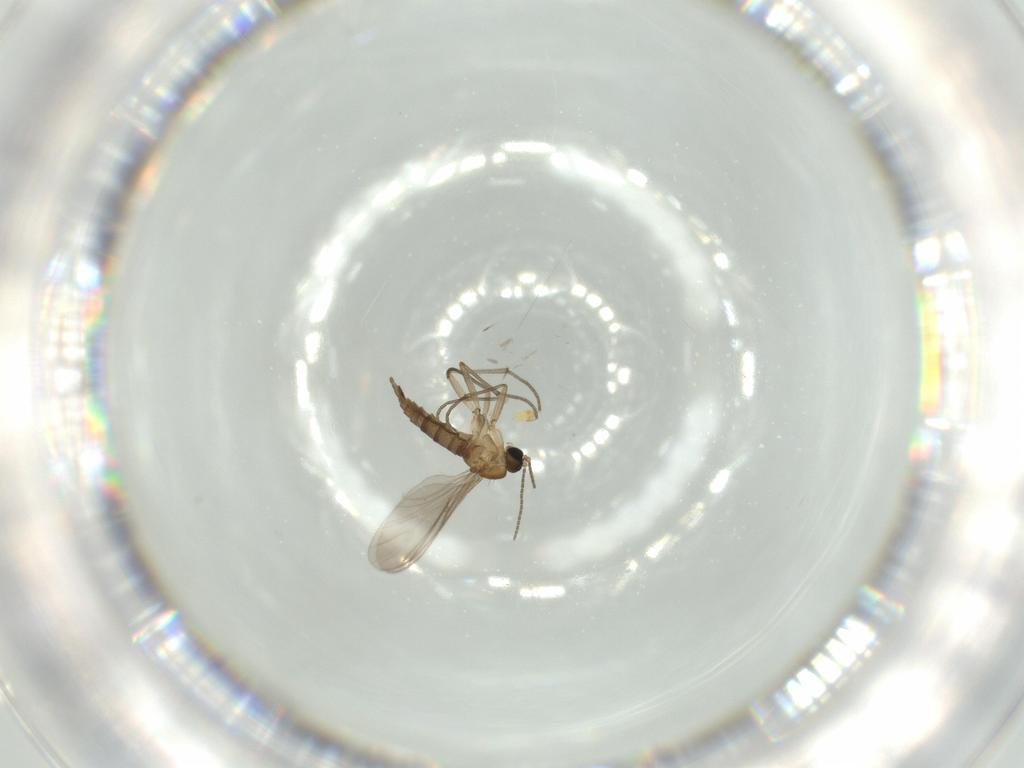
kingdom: Animalia
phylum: Arthropoda
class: Insecta
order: Diptera
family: Sciaridae
